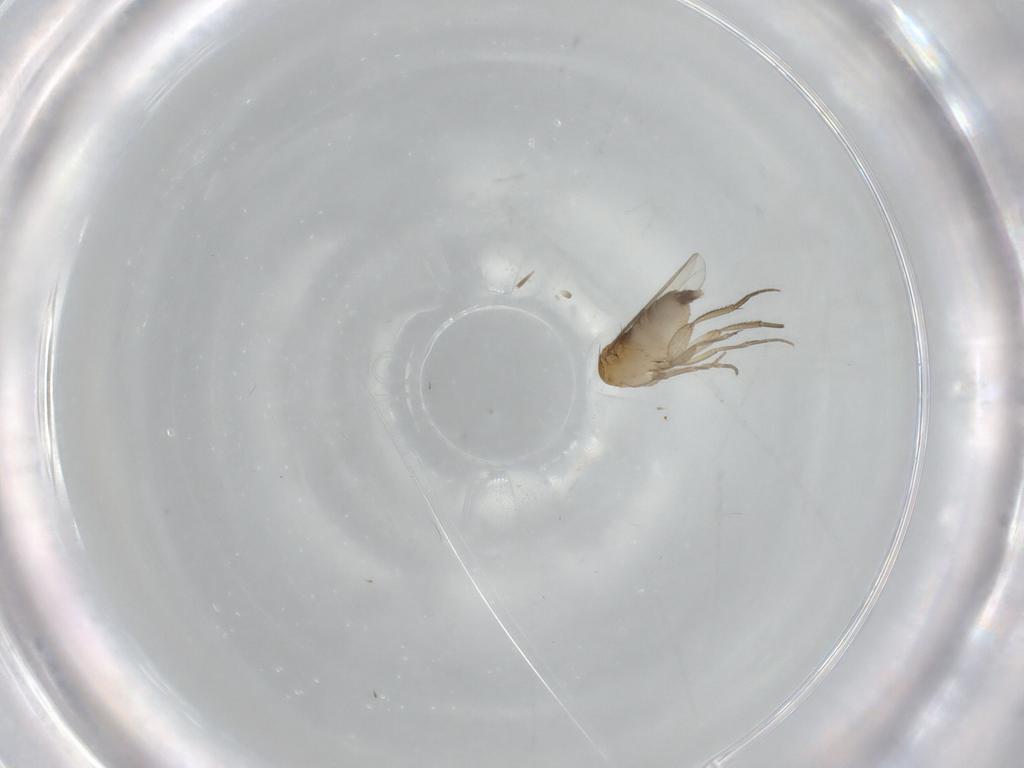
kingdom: Animalia
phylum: Arthropoda
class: Insecta
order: Diptera
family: Phoridae
